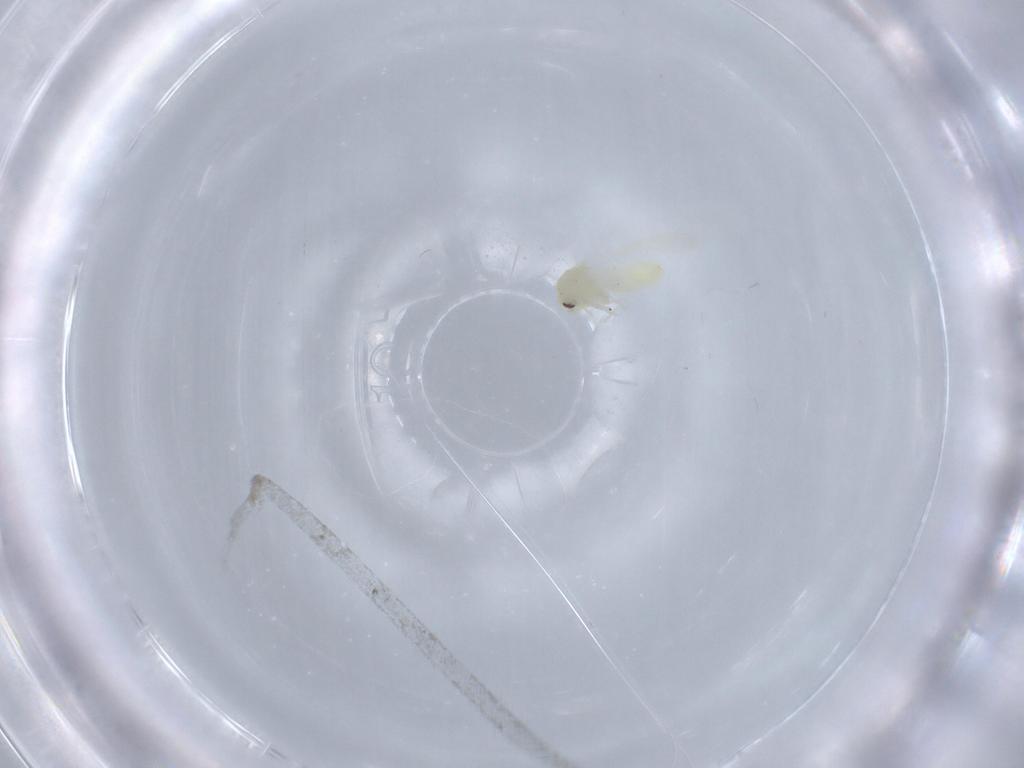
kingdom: Animalia
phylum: Arthropoda
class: Insecta
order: Hemiptera
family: Aleyrodidae
